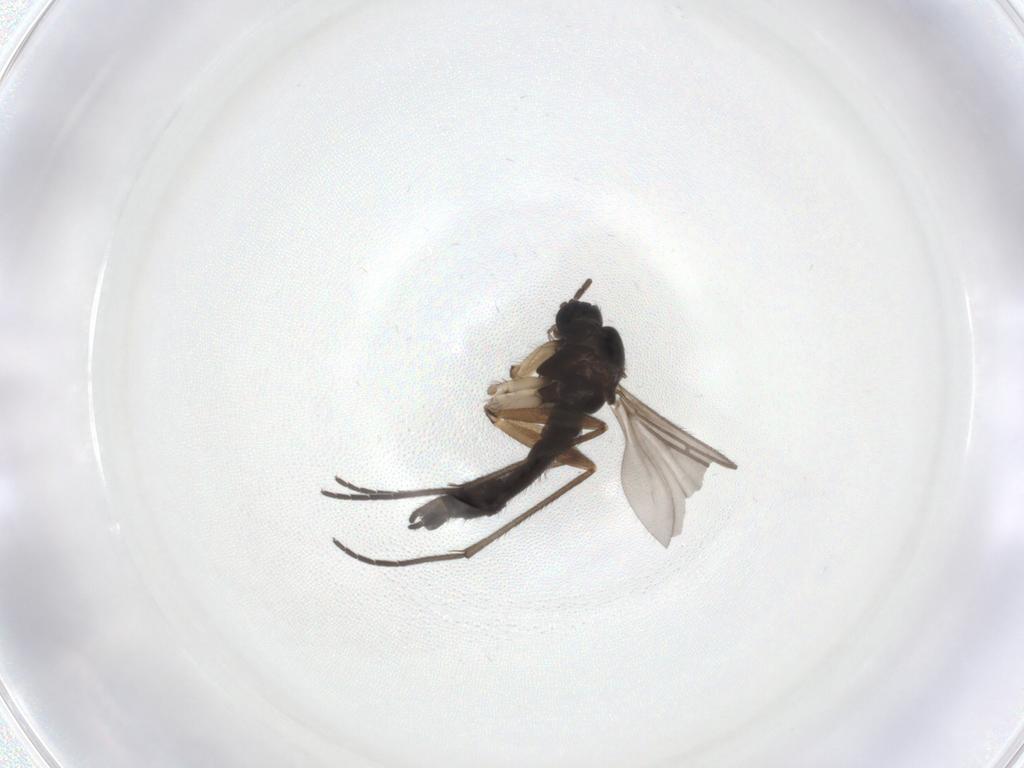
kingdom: Animalia
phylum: Arthropoda
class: Insecta
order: Diptera
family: Sciaridae
